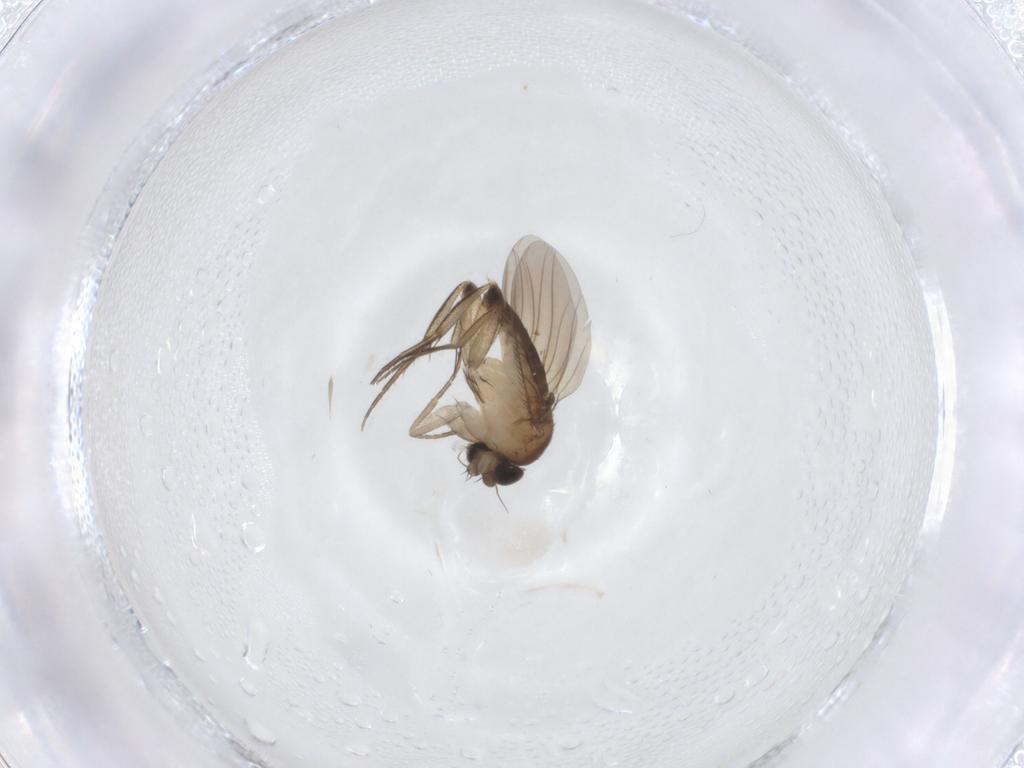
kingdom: Animalia
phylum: Arthropoda
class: Insecta
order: Diptera
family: Phoridae
